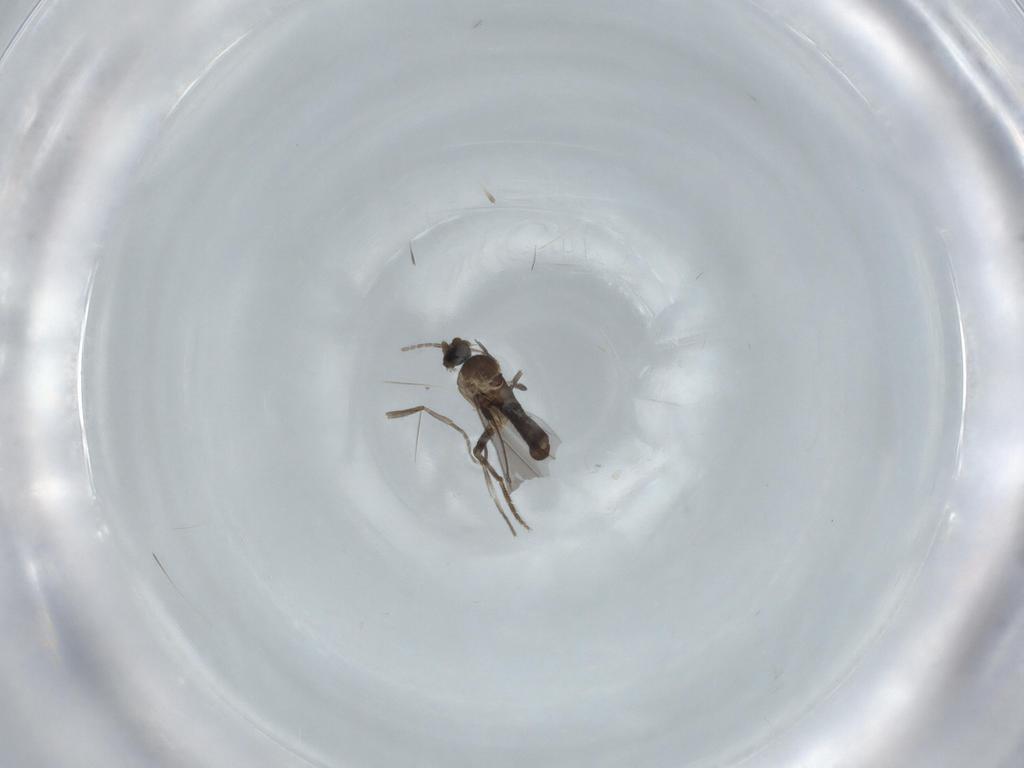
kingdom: Animalia
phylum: Arthropoda
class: Insecta
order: Diptera
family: Phoridae
